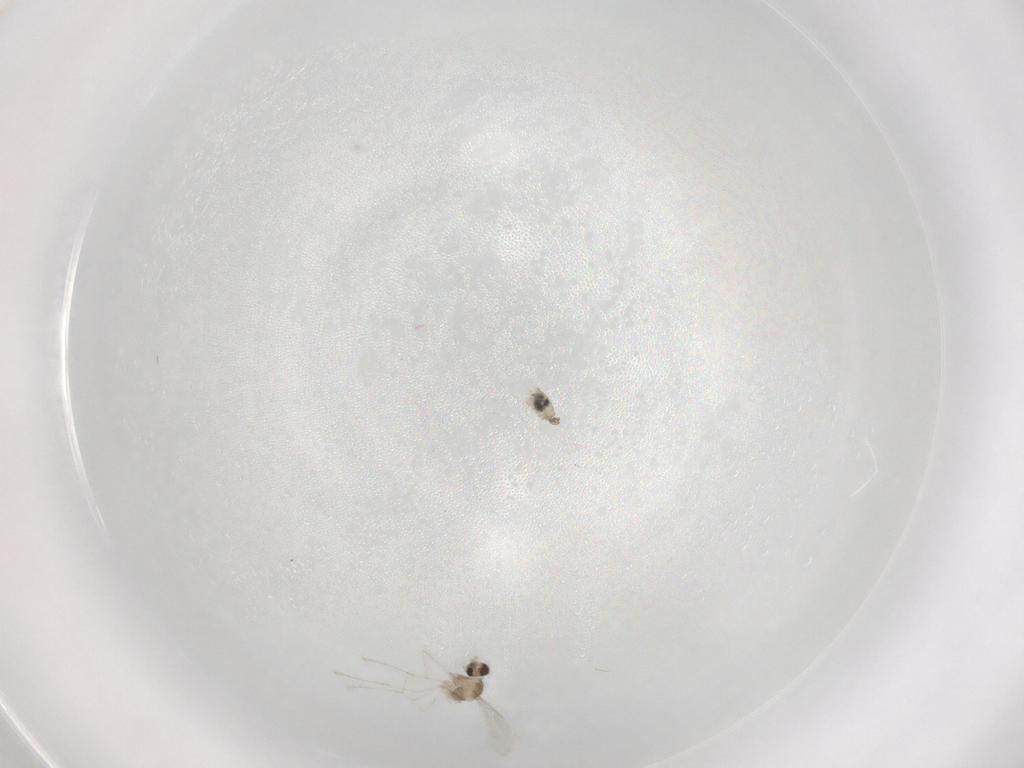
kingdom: Animalia
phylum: Arthropoda
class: Insecta
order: Diptera
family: Cecidomyiidae
